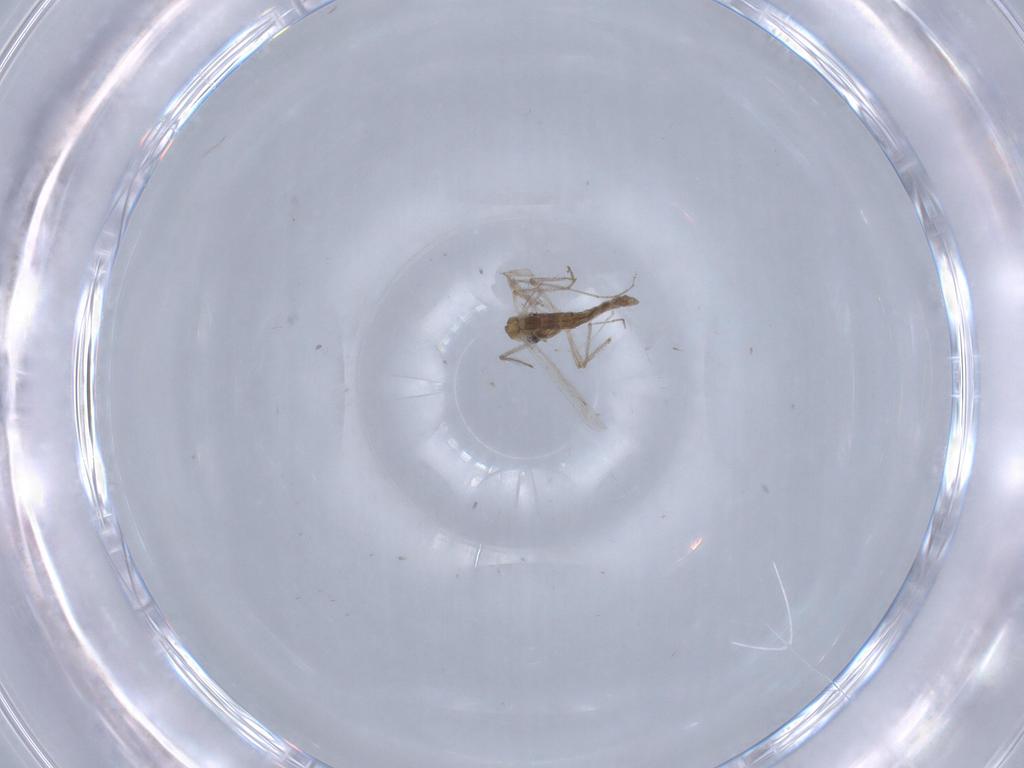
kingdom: Animalia
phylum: Arthropoda
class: Insecta
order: Diptera
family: Chironomidae
